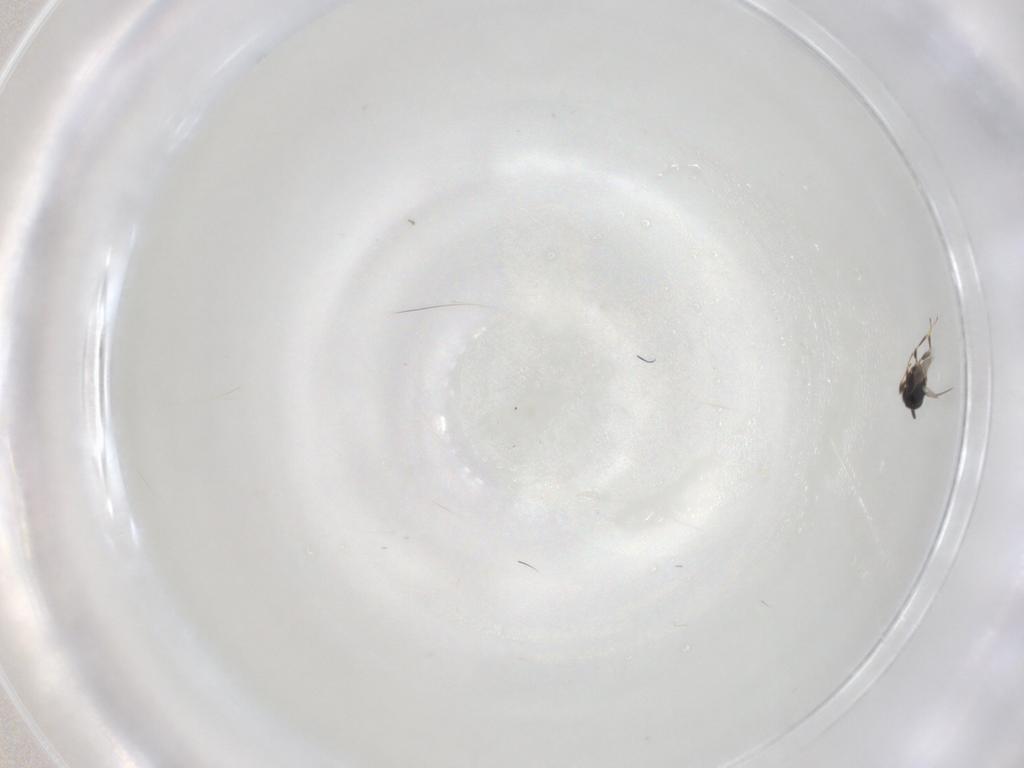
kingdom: Animalia
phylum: Arthropoda
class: Insecta
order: Hymenoptera
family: Scelionidae
